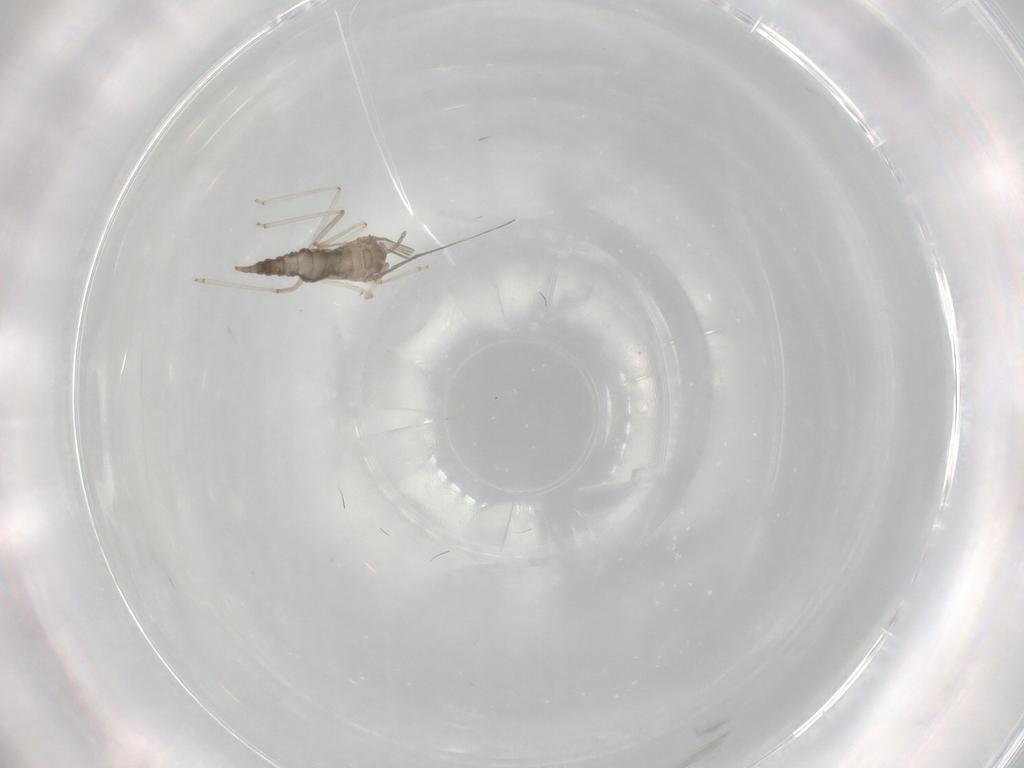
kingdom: Animalia
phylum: Arthropoda
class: Insecta
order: Diptera
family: Cecidomyiidae
